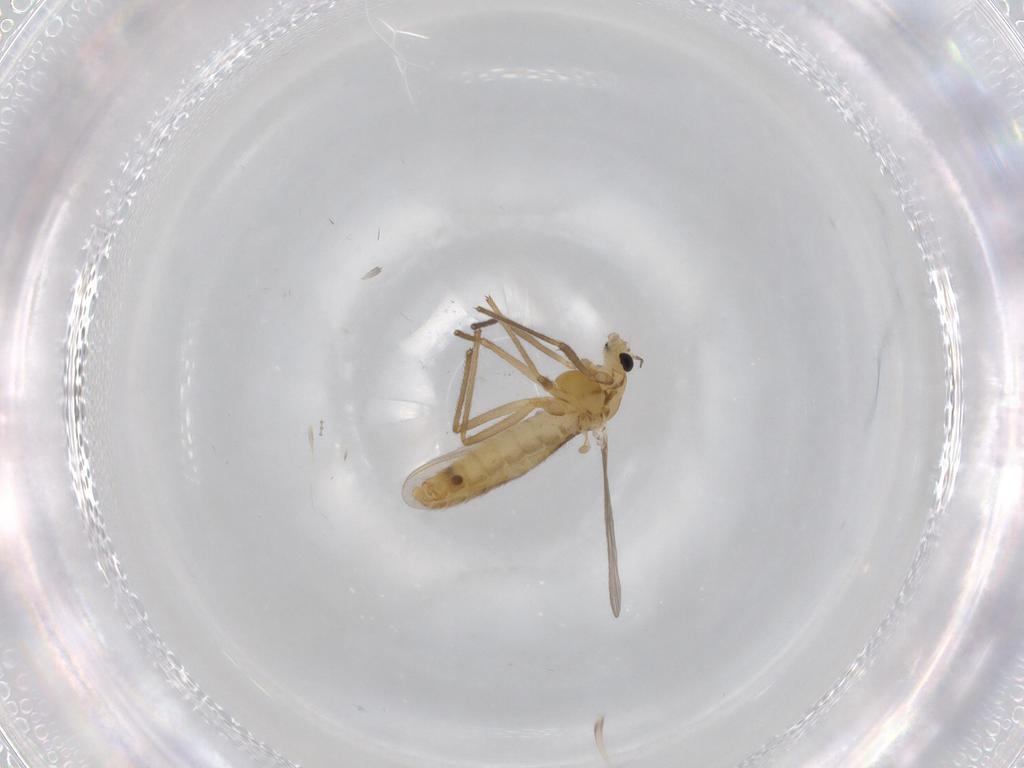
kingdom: Animalia
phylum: Arthropoda
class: Insecta
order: Diptera
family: Chironomidae
